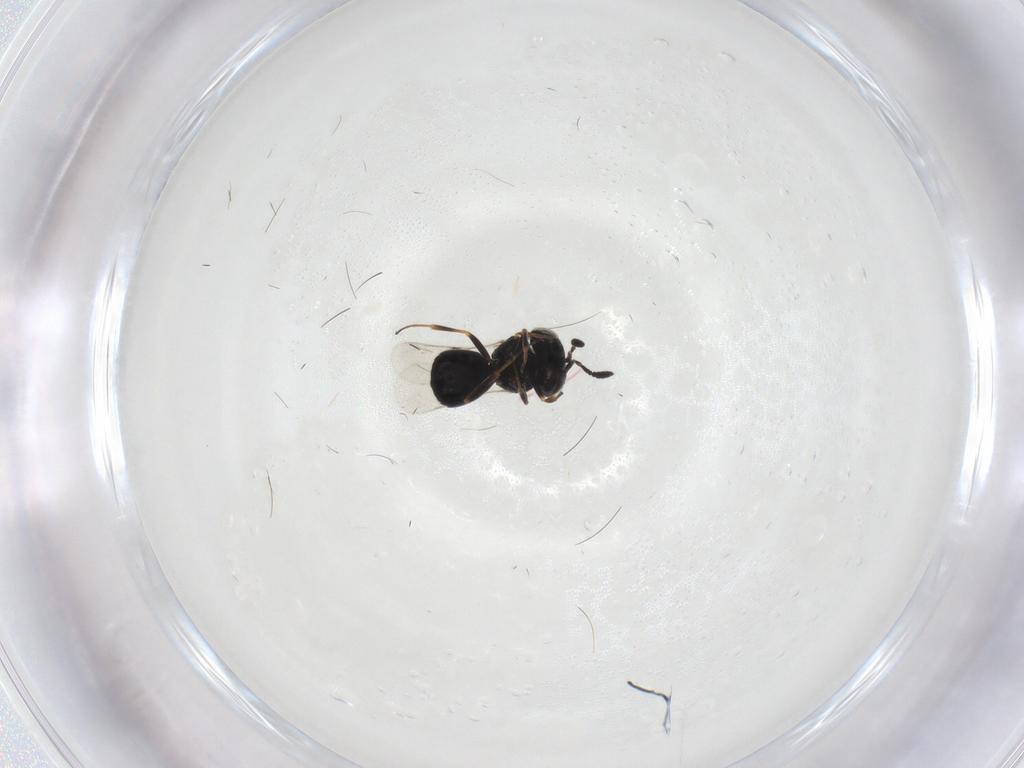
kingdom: Animalia
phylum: Arthropoda
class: Insecta
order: Hymenoptera
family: Scelionidae
